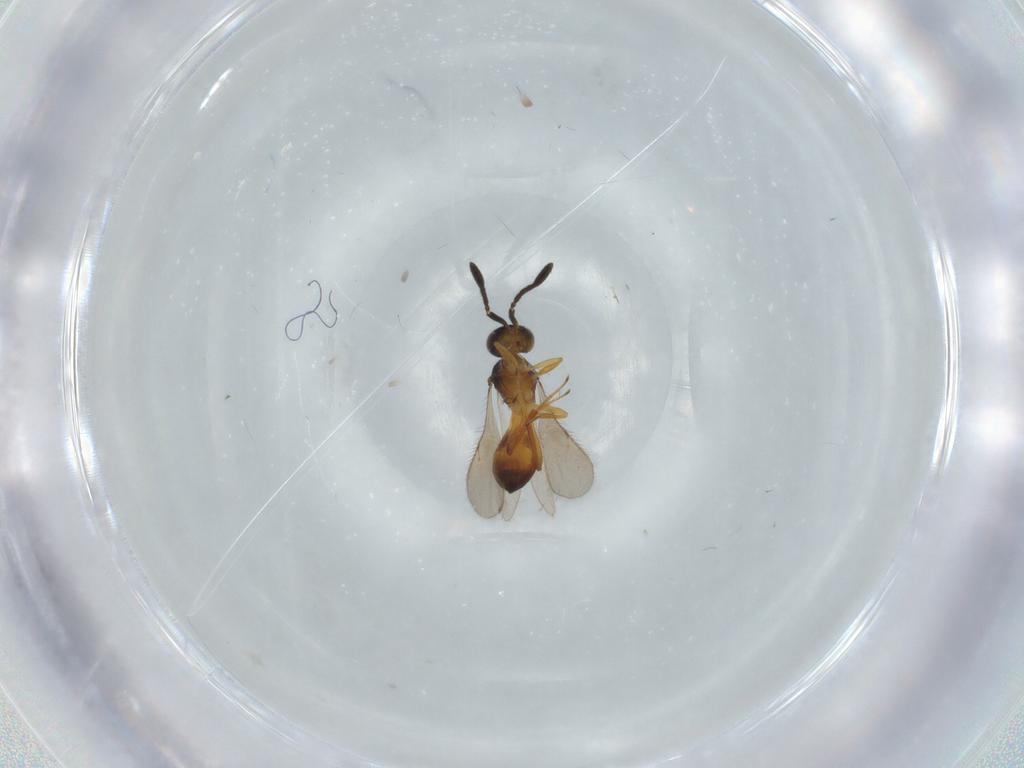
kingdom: Animalia
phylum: Arthropoda
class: Insecta
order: Hymenoptera
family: Scelionidae
